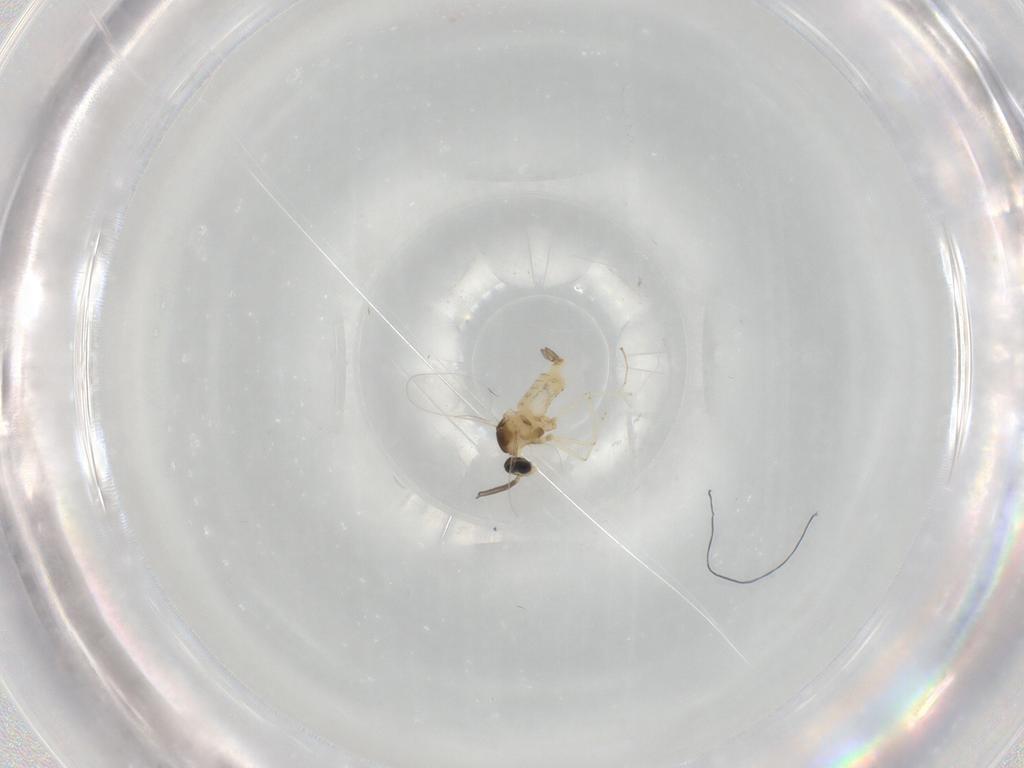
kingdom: Animalia
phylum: Arthropoda
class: Insecta
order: Diptera
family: Cecidomyiidae
